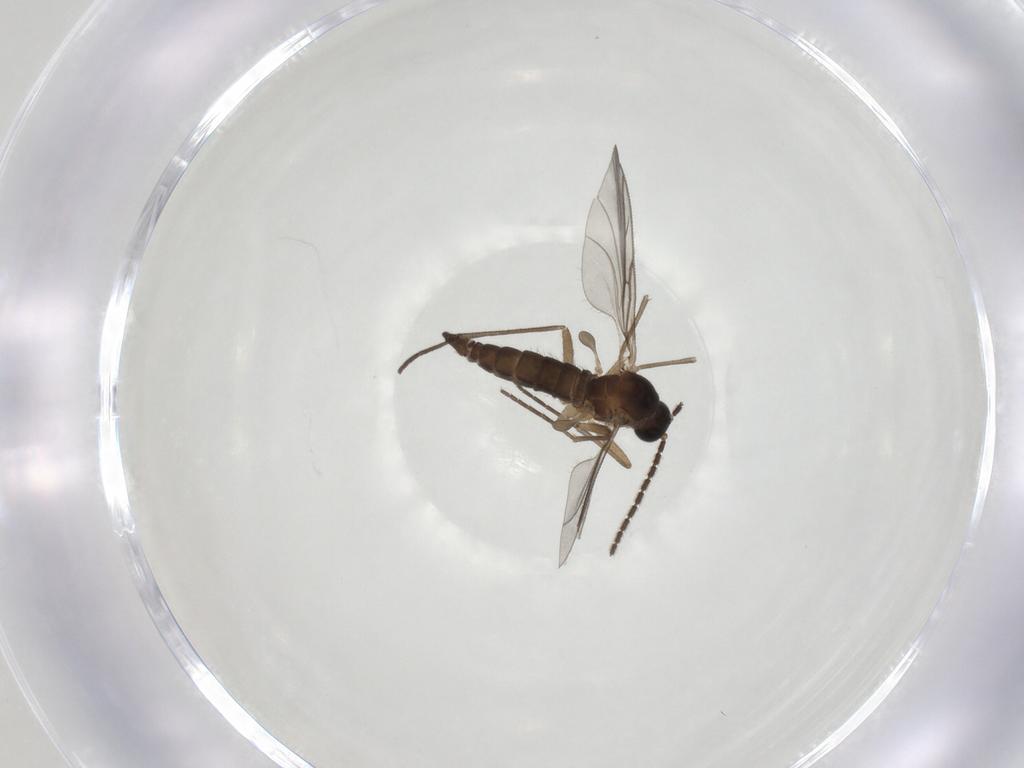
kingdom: Animalia
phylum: Arthropoda
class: Insecta
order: Diptera
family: Sciaridae
